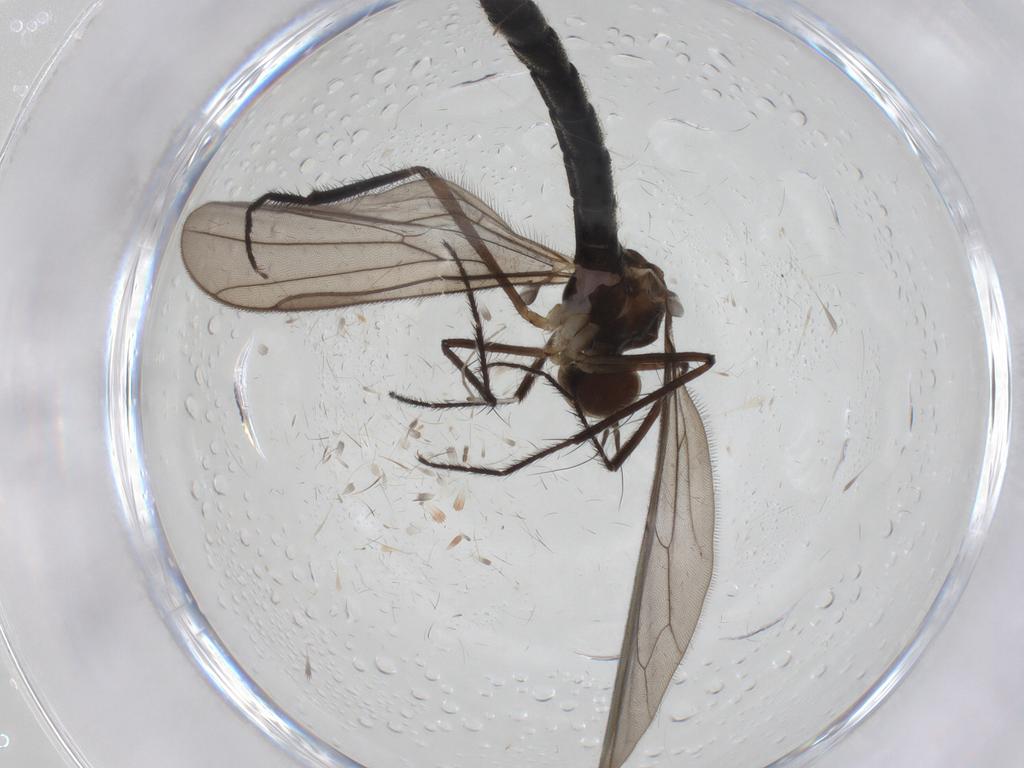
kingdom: Animalia
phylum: Arthropoda
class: Insecta
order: Diptera
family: Hybotidae
